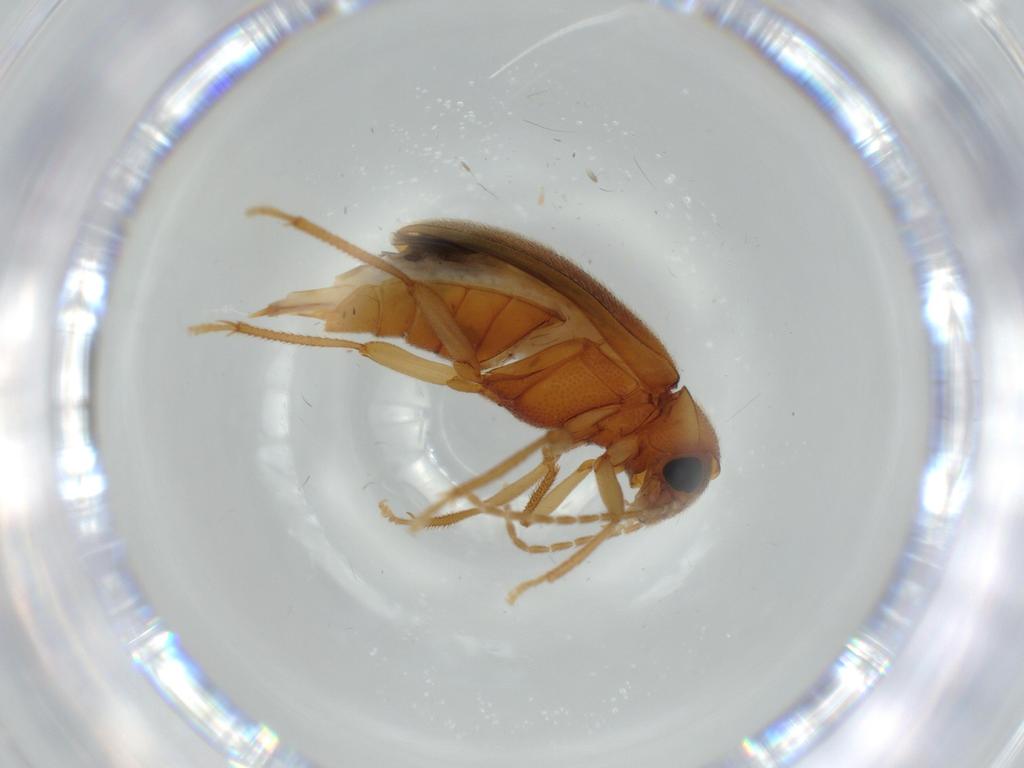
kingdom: Animalia
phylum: Arthropoda
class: Insecta
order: Coleoptera
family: Ptilodactylidae
